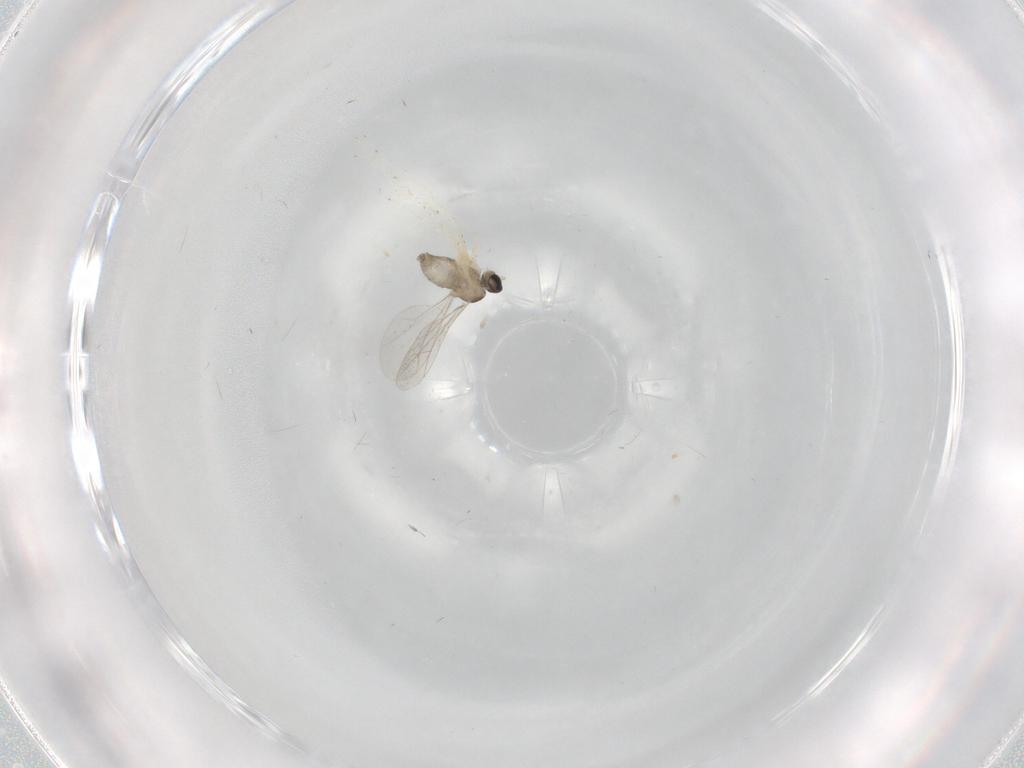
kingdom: Animalia
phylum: Arthropoda
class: Insecta
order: Diptera
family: Cecidomyiidae
